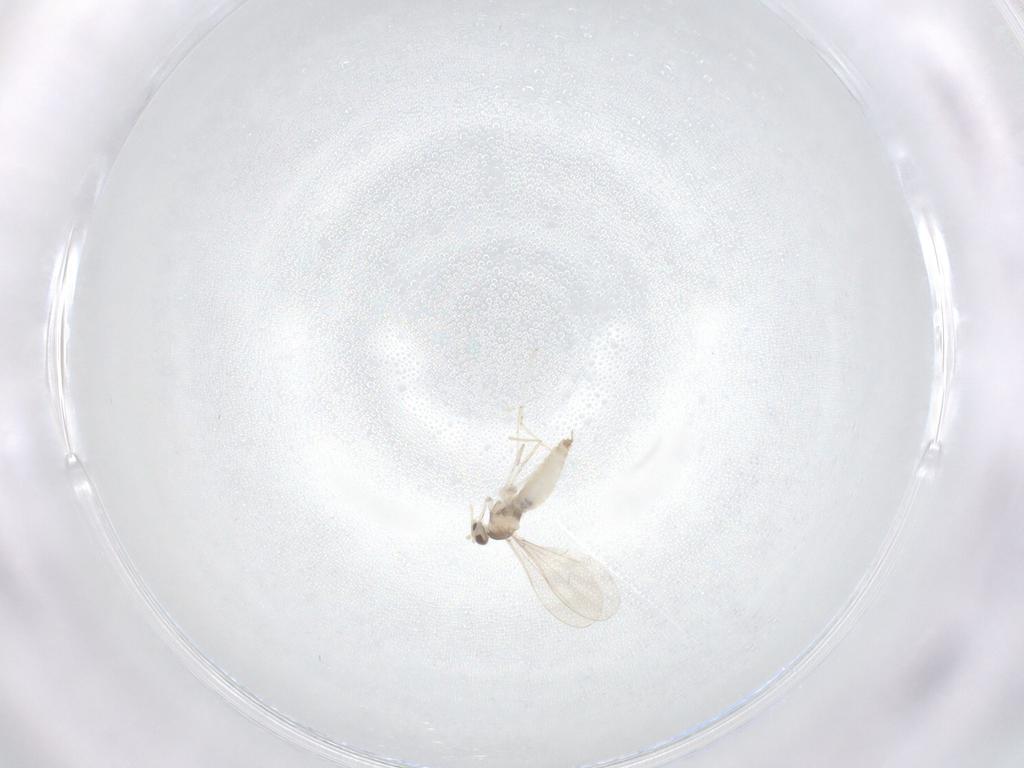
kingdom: Animalia
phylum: Arthropoda
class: Insecta
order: Diptera
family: Cecidomyiidae
